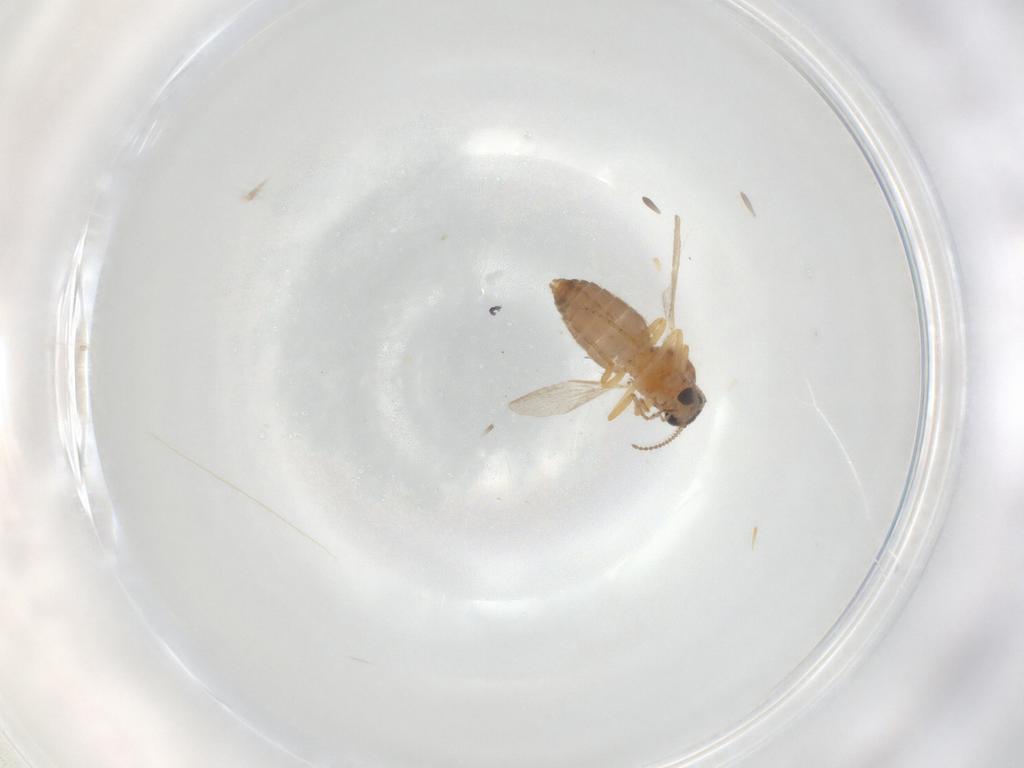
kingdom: Animalia
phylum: Arthropoda
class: Insecta
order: Diptera
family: Ceratopogonidae
